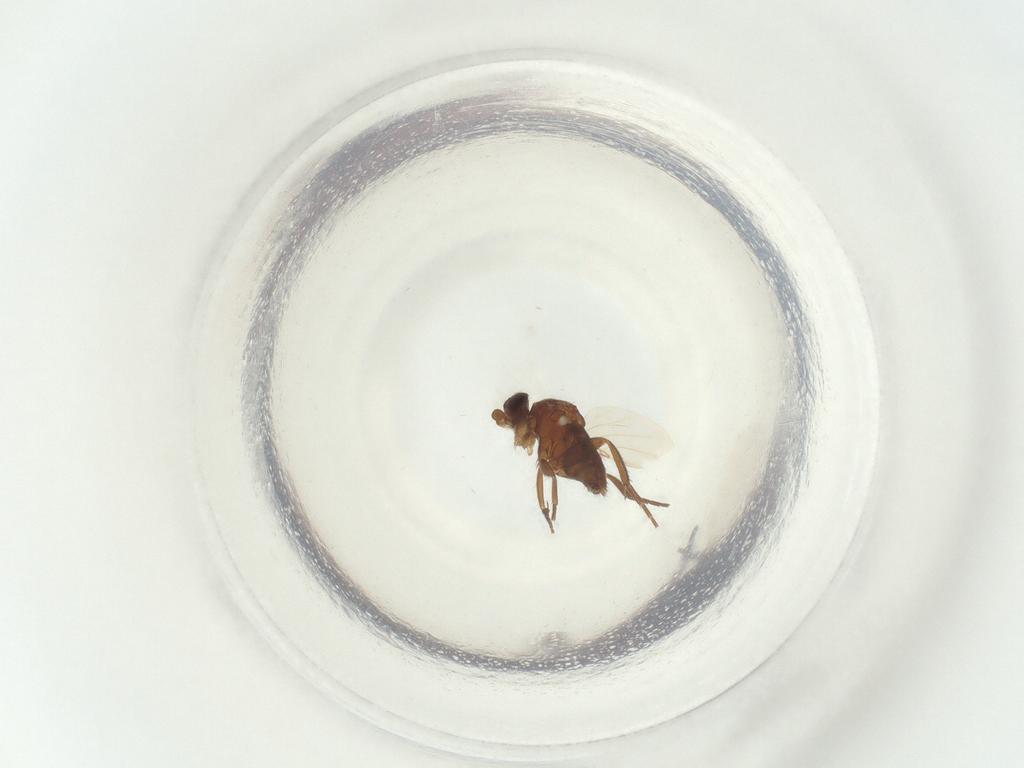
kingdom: Animalia
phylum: Arthropoda
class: Insecta
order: Diptera
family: Phoridae
